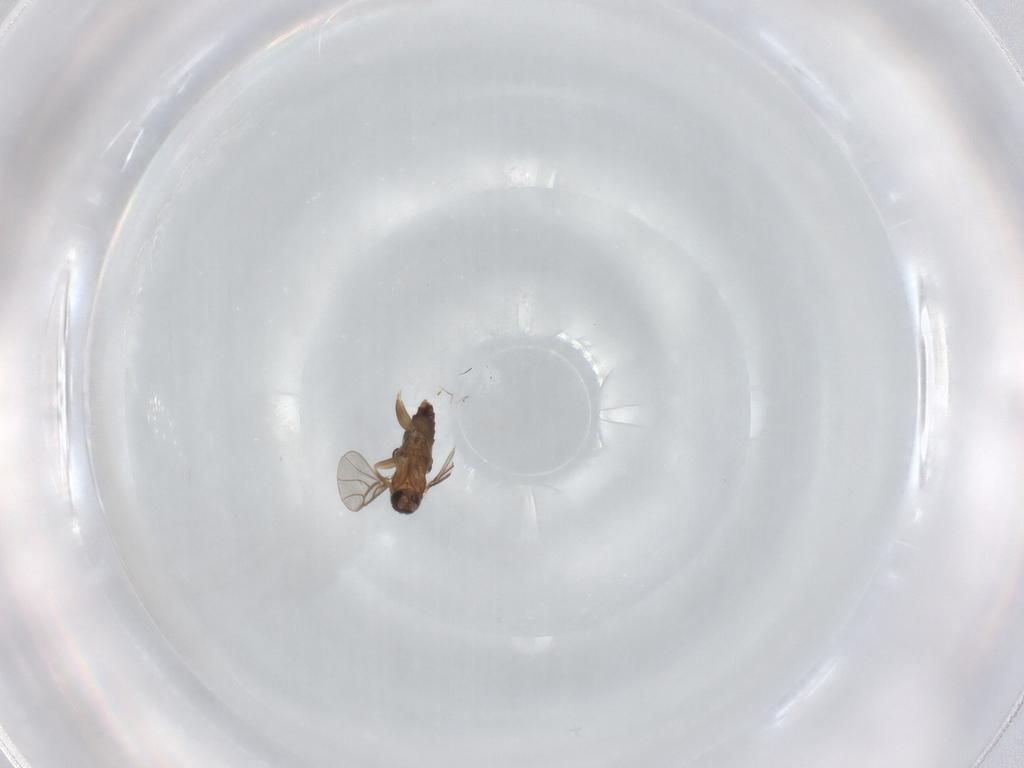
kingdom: Animalia
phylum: Arthropoda
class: Insecta
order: Diptera
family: Phoridae
